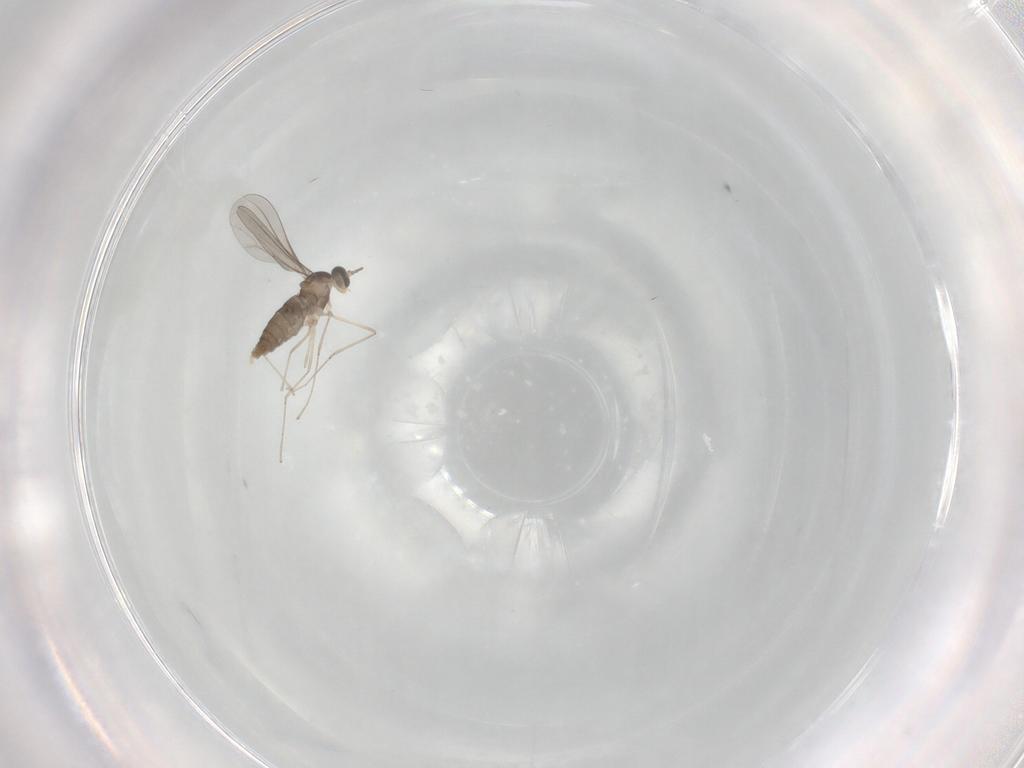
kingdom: Animalia
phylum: Arthropoda
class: Insecta
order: Diptera
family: Cecidomyiidae
